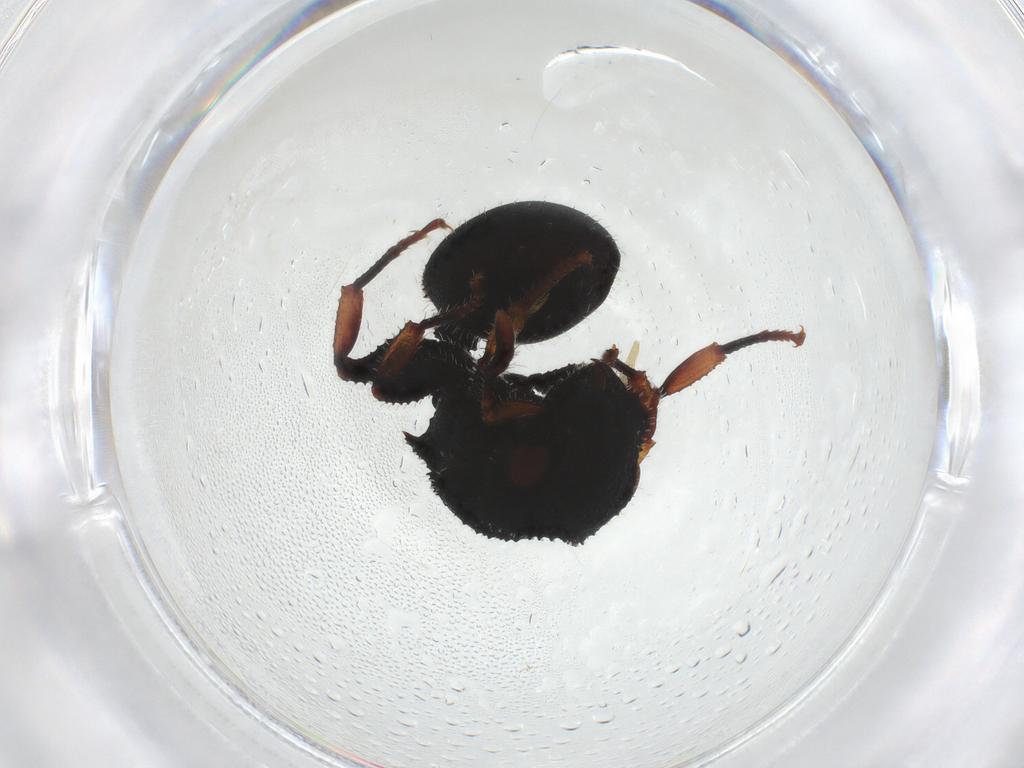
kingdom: Animalia
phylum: Arthropoda
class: Insecta
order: Hymenoptera
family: Formicidae
